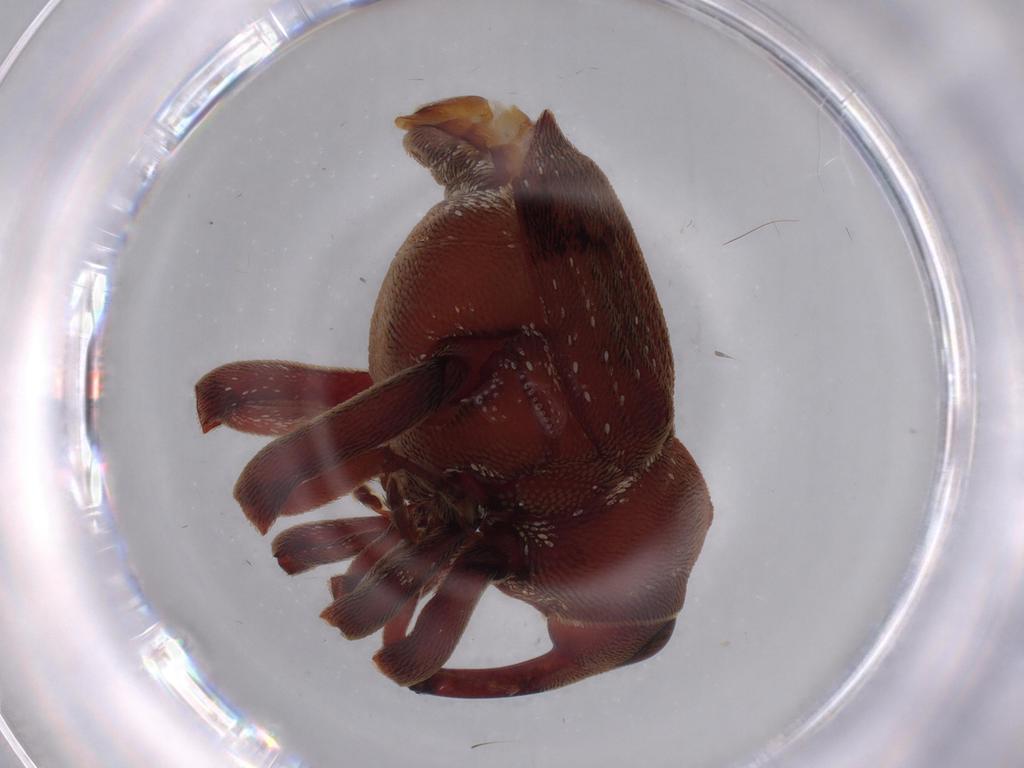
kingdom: Animalia
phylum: Arthropoda
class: Insecta
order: Coleoptera
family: Curculionidae
